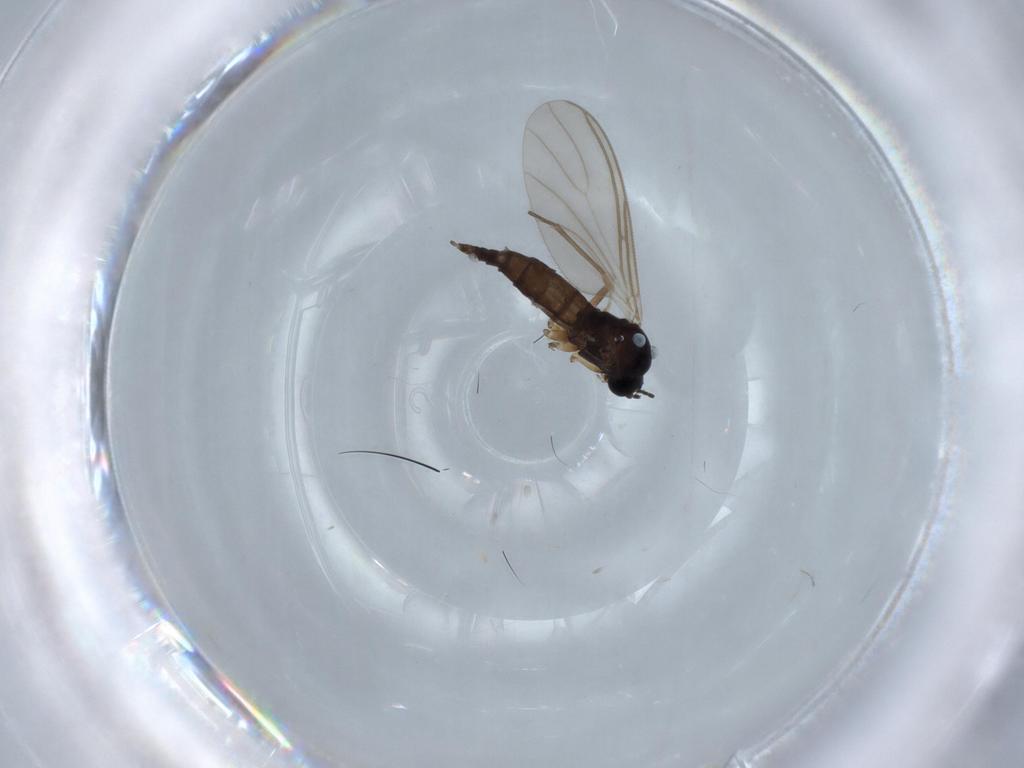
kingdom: Animalia
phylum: Arthropoda
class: Insecta
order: Diptera
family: Sciaridae
